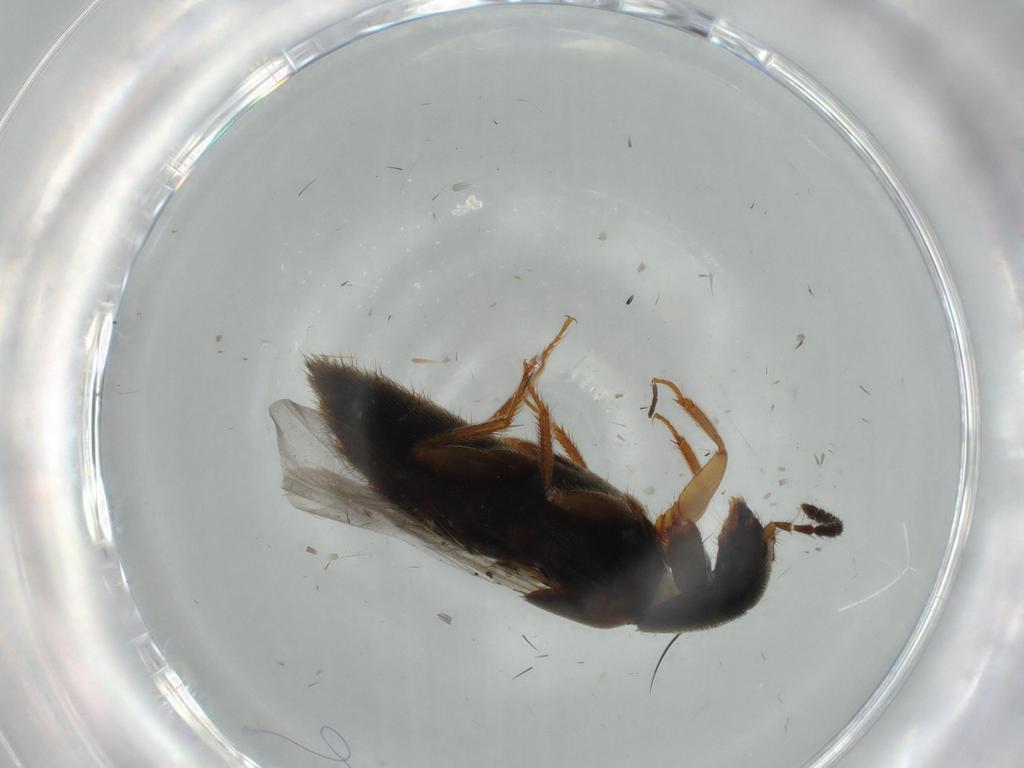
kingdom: Animalia
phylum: Arthropoda
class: Insecta
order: Coleoptera
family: Staphylinidae
